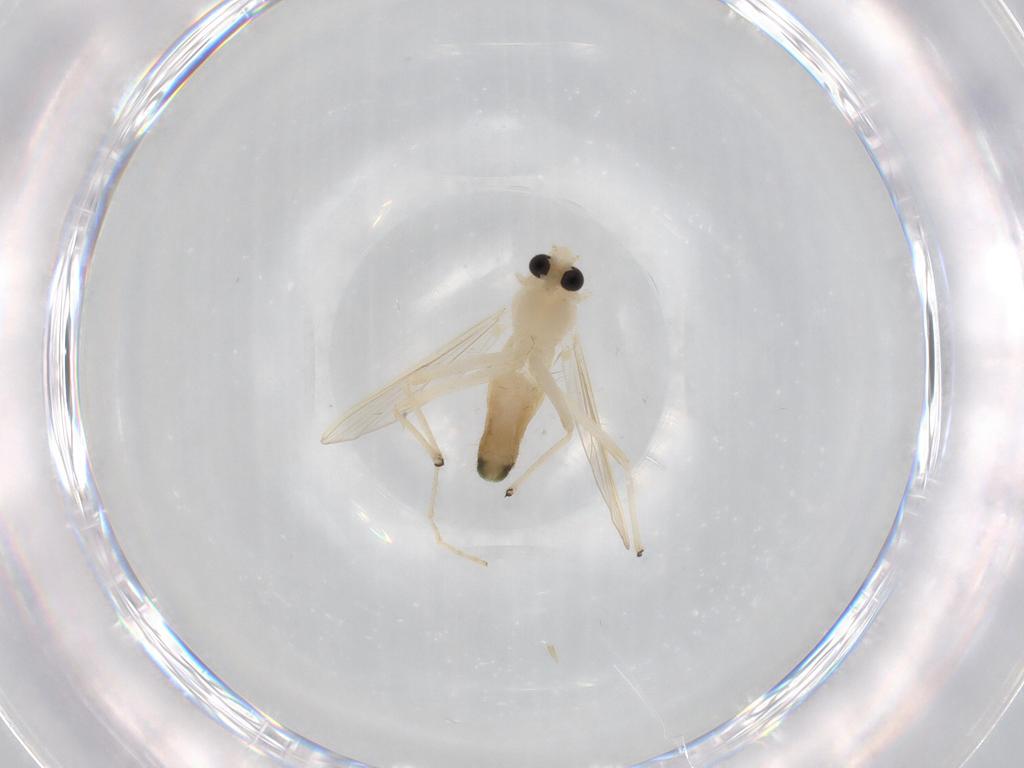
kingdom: Animalia
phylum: Arthropoda
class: Insecta
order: Diptera
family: Chironomidae
